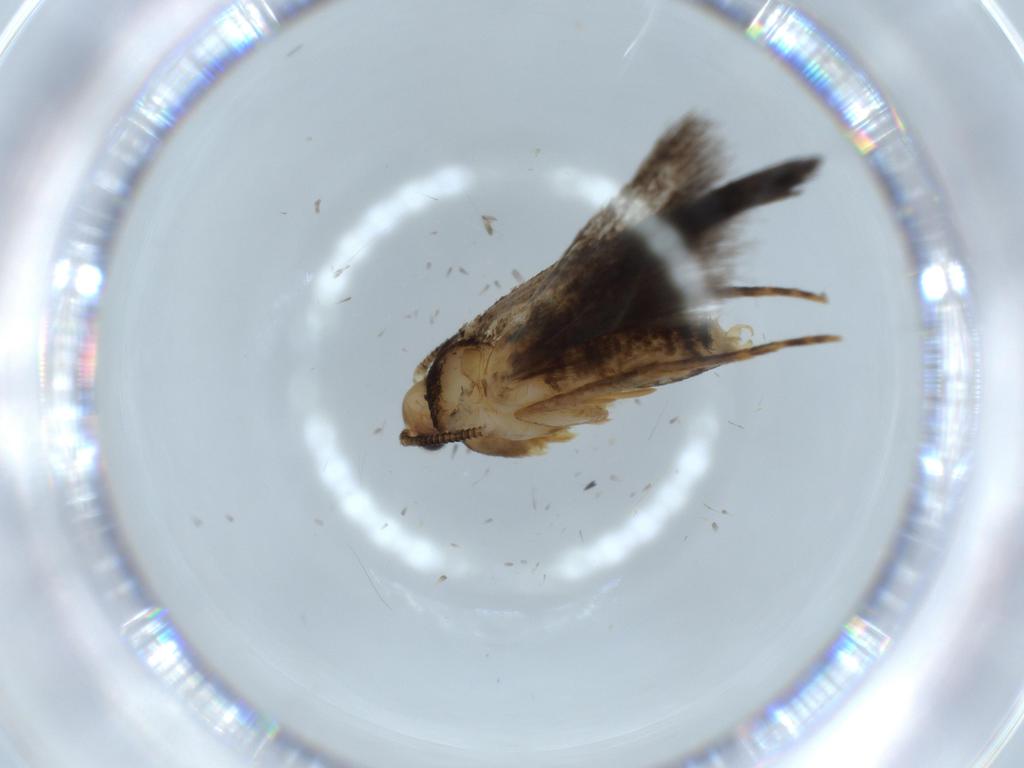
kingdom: Animalia
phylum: Arthropoda
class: Insecta
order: Lepidoptera
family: Tineidae
